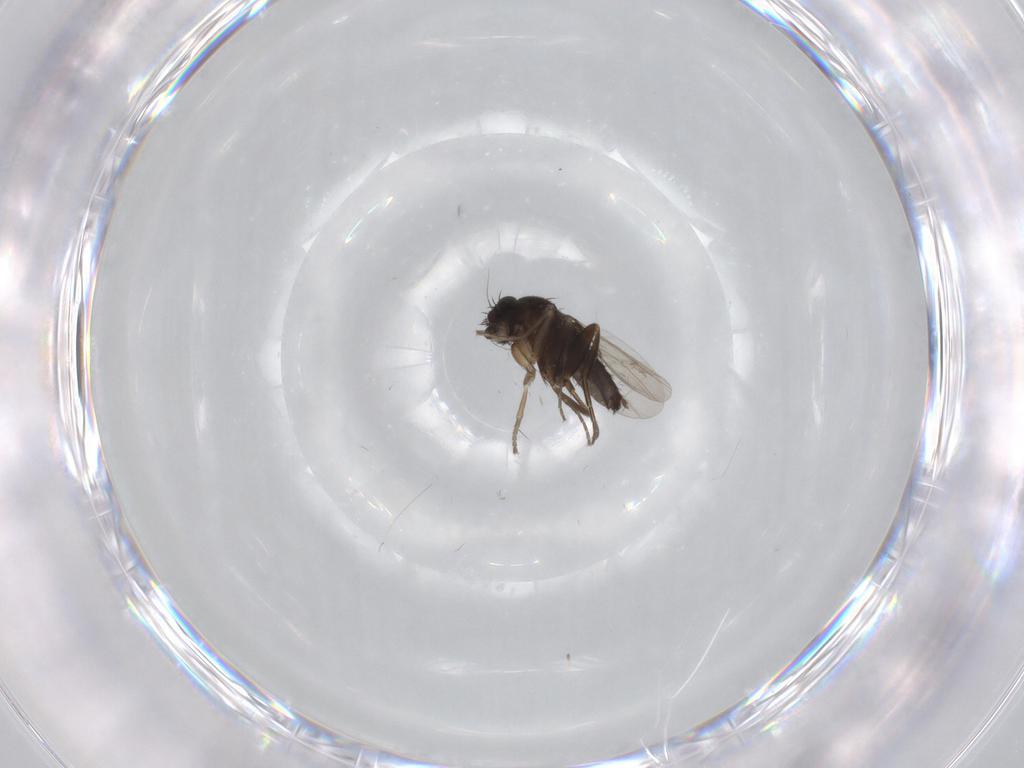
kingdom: Animalia
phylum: Arthropoda
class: Insecta
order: Diptera
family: Phoridae
